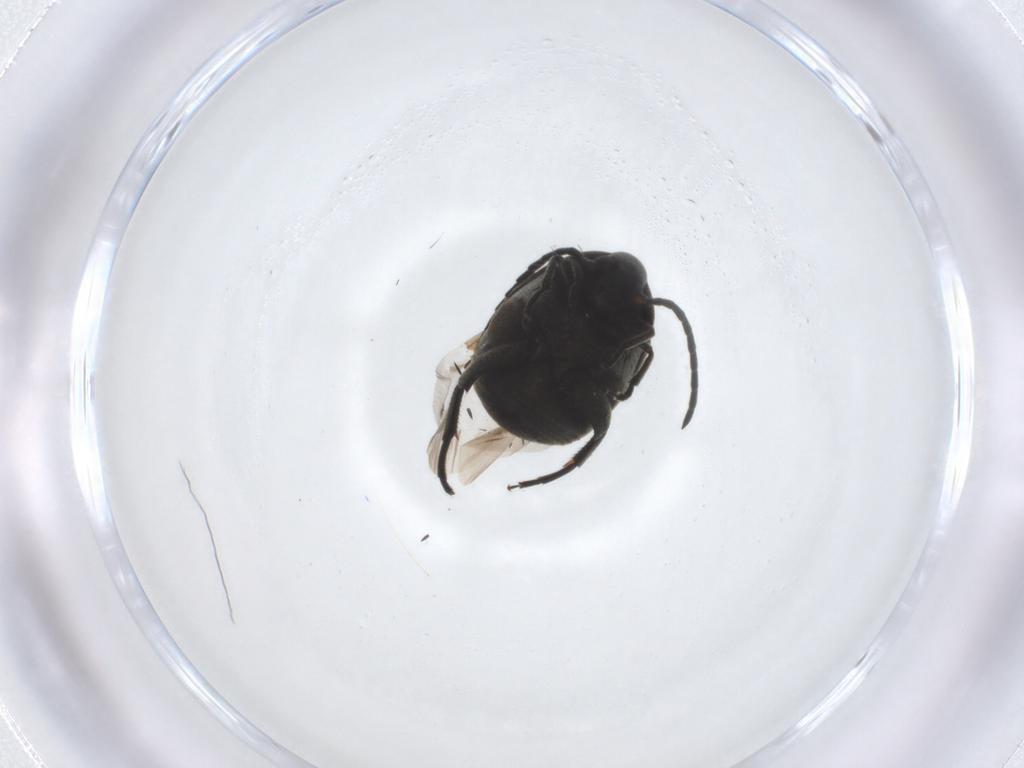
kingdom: Animalia
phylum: Arthropoda
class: Insecta
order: Coleoptera
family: Chrysomelidae
